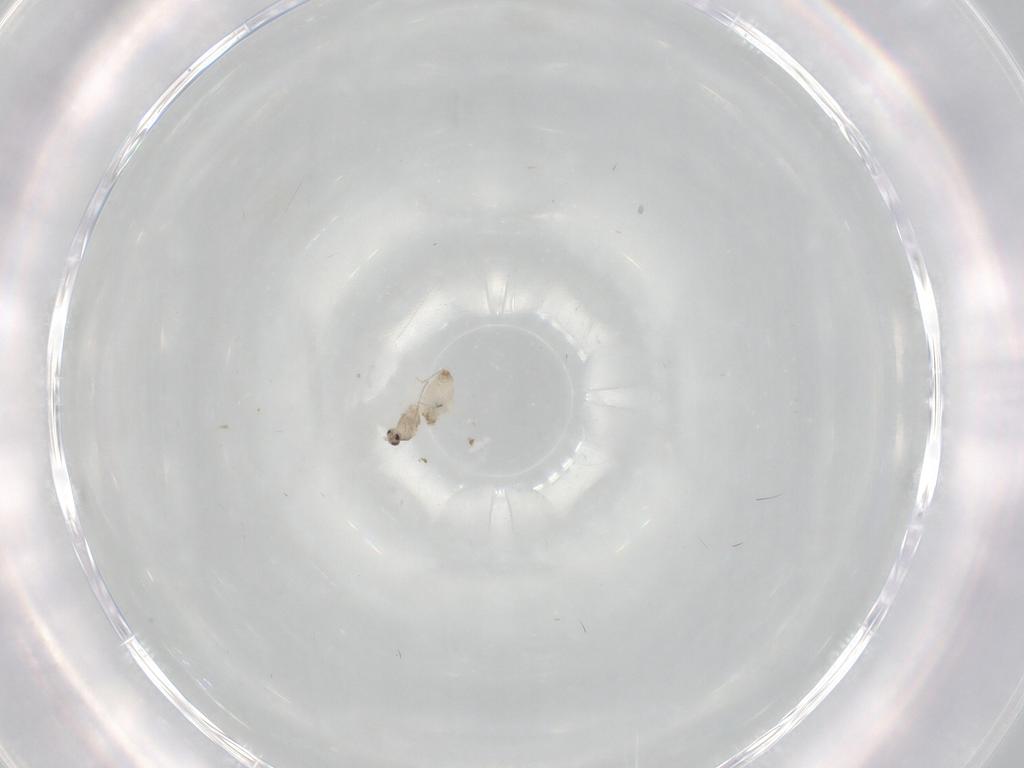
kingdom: Animalia
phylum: Arthropoda
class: Insecta
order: Diptera
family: Cecidomyiidae
